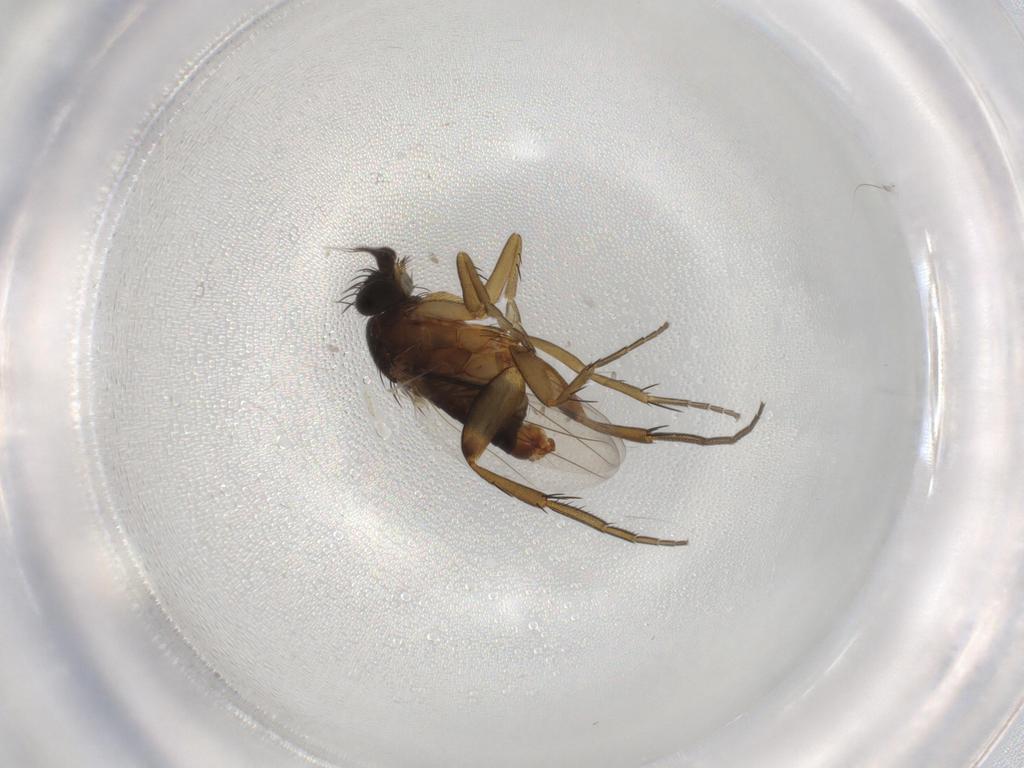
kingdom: Animalia
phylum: Arthropoda
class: Insecta
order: Diptera
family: Phoridae
